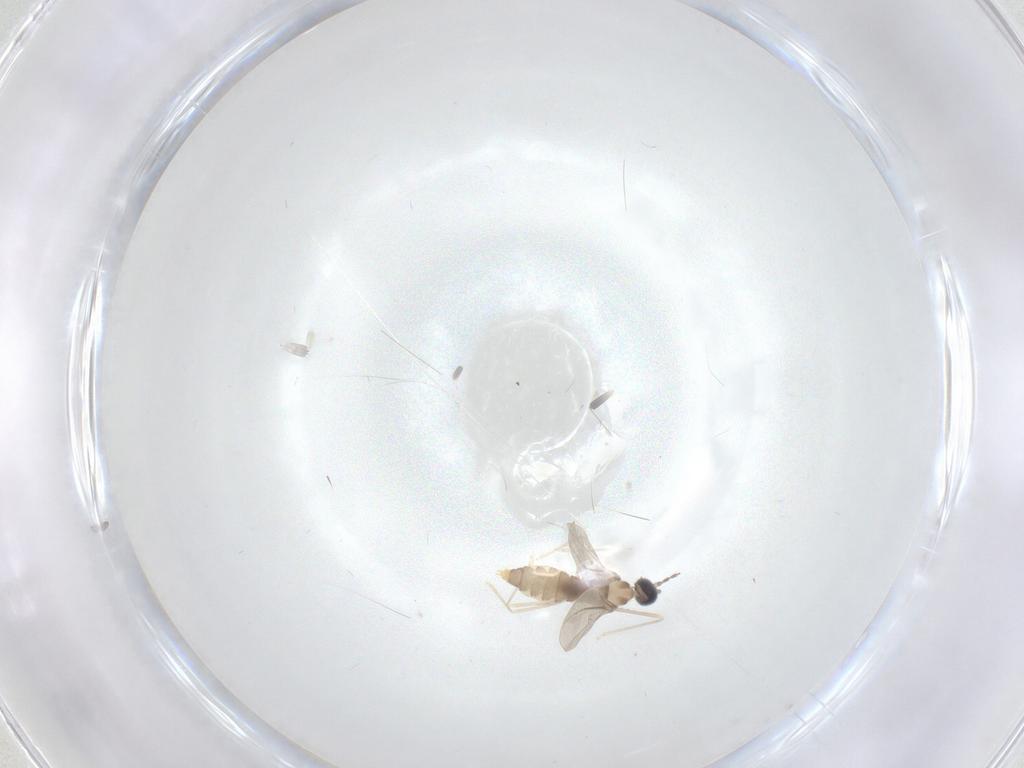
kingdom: Animalia
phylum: Arthropoda
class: Insecta
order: Diptera
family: Cecidomyiidae
